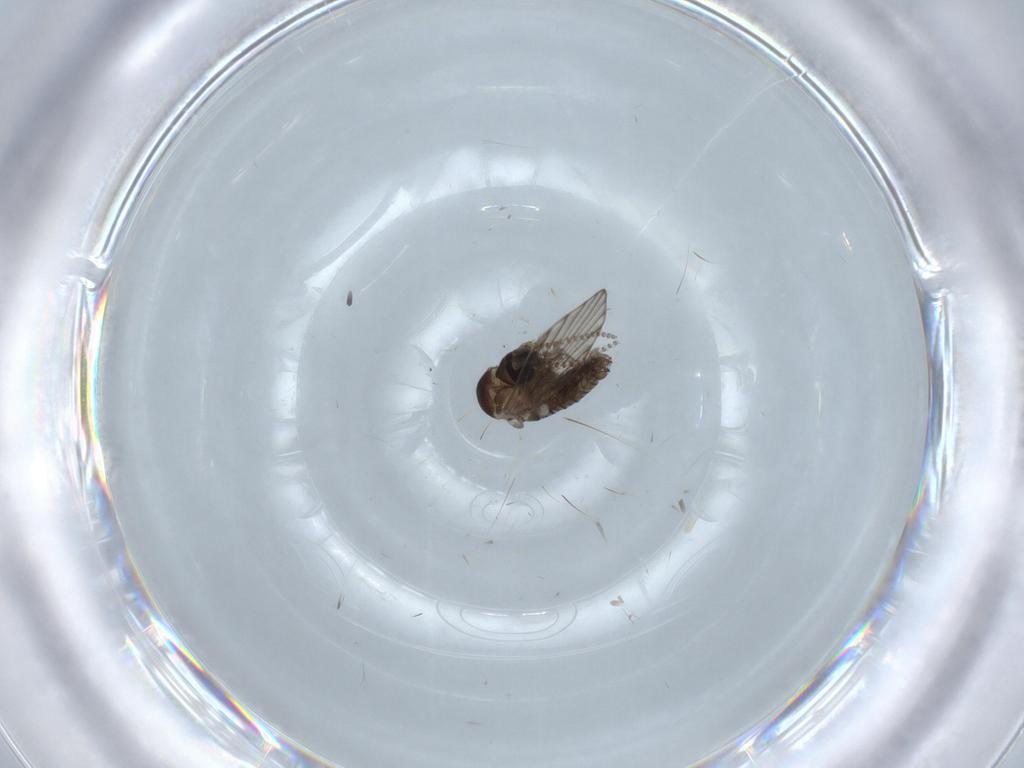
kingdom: Animalia
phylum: Arthropoda
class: Insecta
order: Diptera
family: Psychodidae
